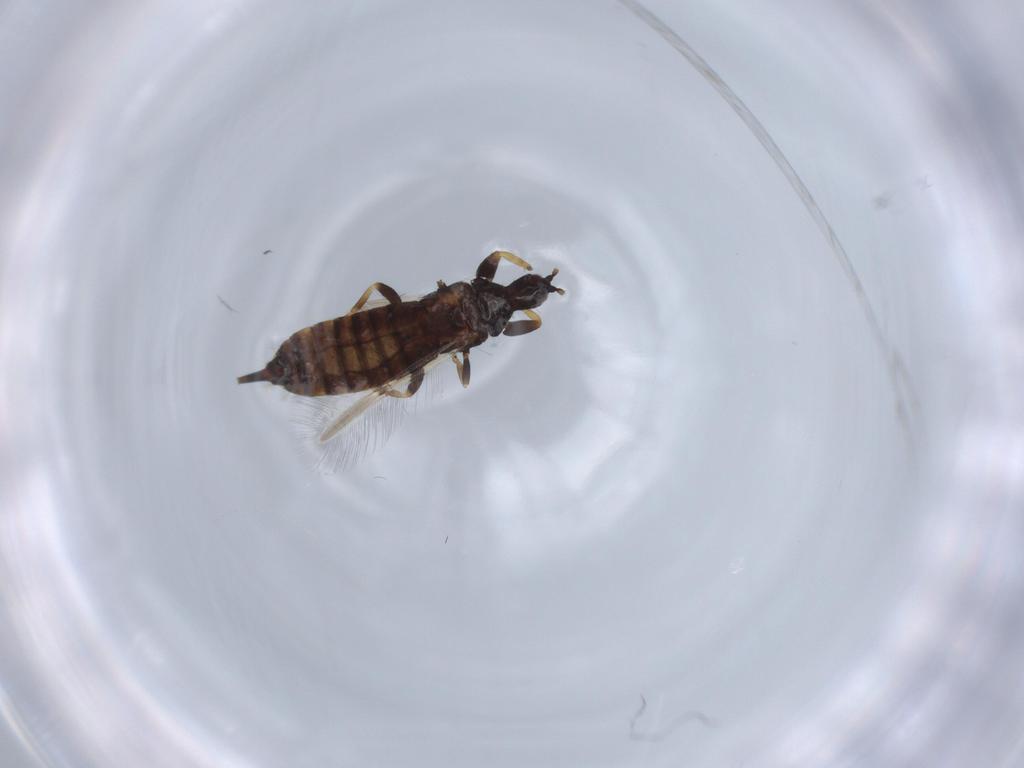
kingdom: Animalia
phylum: Arthropoda
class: Insecta
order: Thysanoptera
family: Phlaeothripidae
